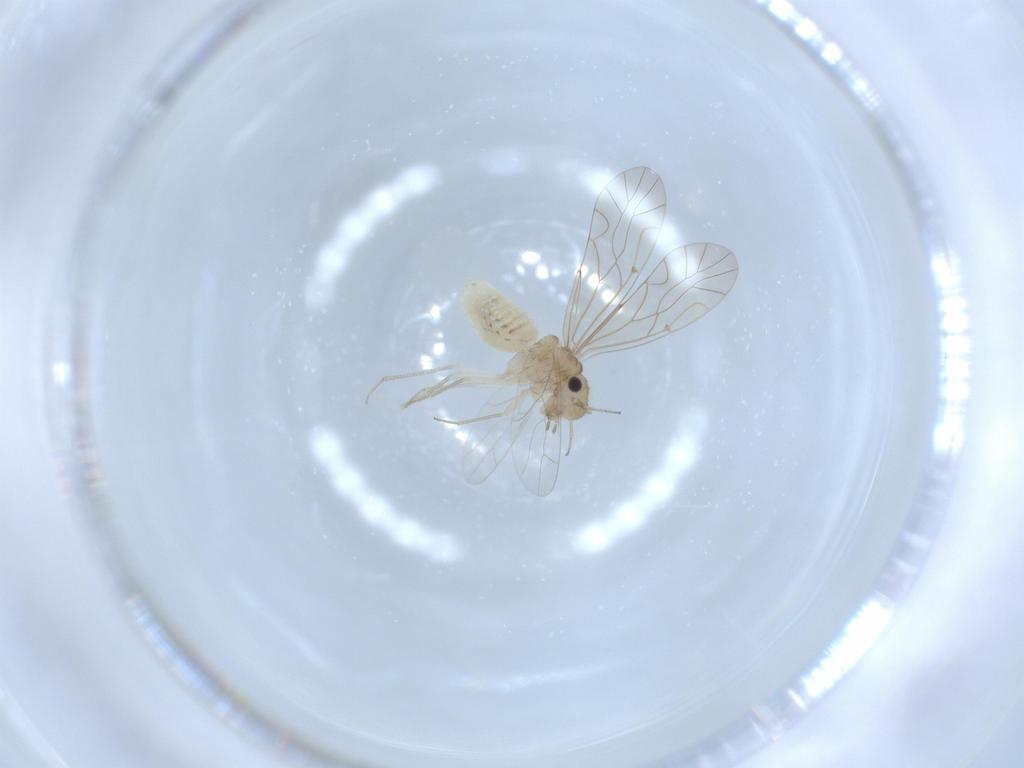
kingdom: Animalia
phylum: Arthropoda
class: Insecta
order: Psocodea
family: Lachesillidae
